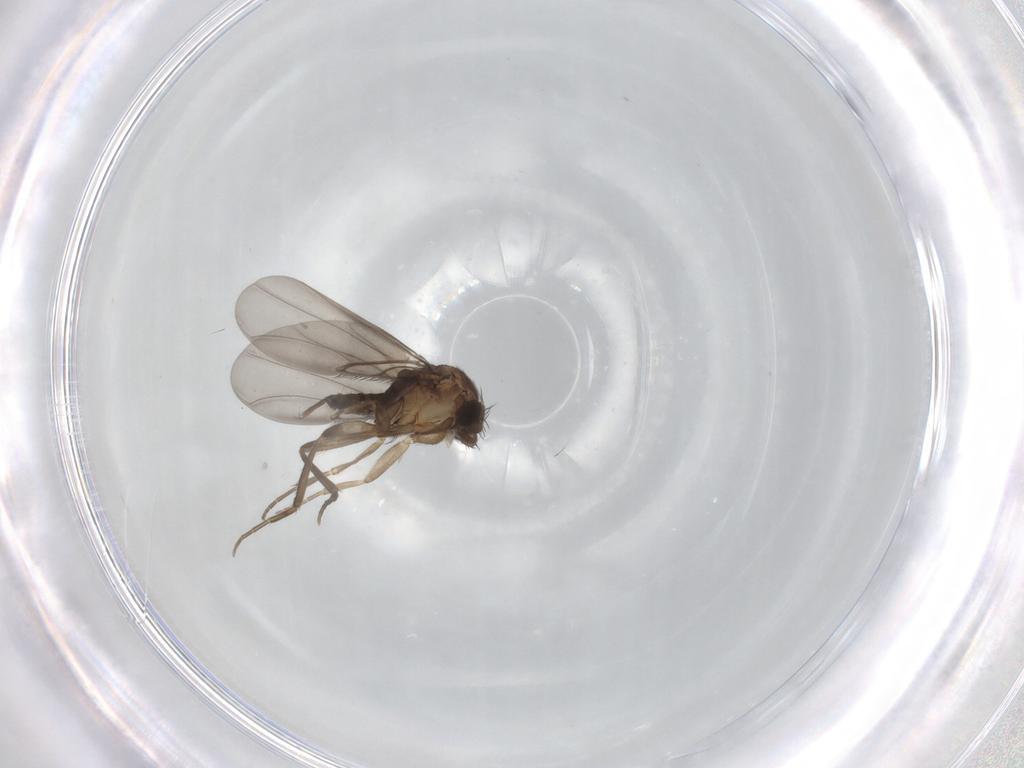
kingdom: Animalia
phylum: Arthropoda
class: Insecta
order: Diptera
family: Phoridae
